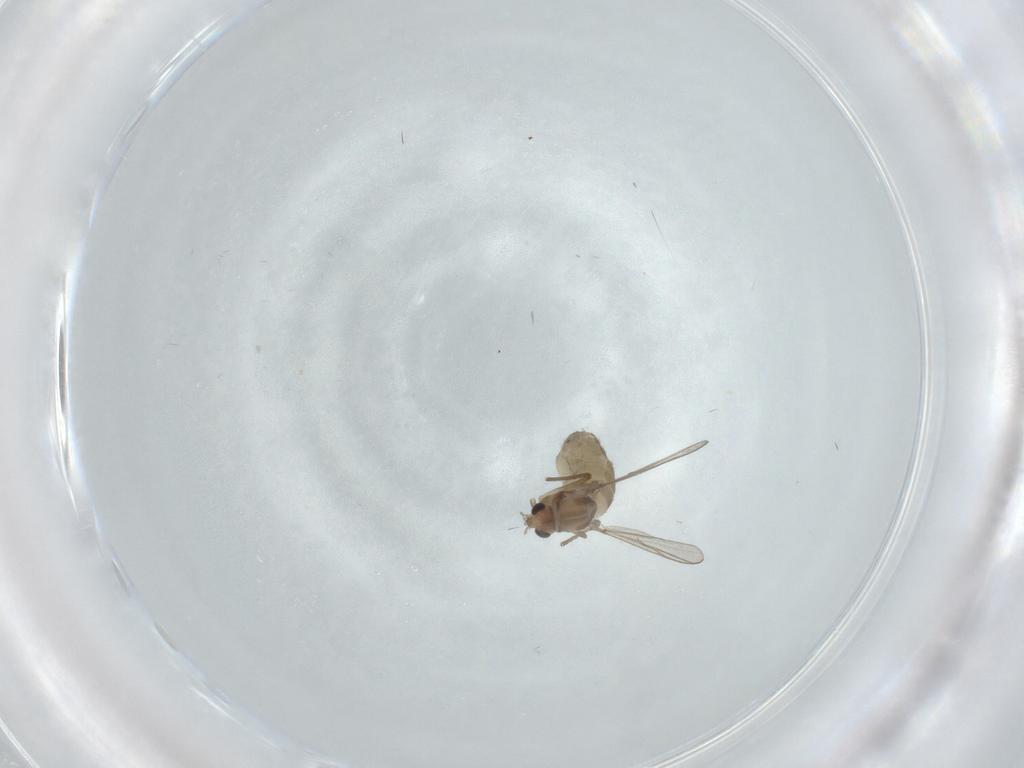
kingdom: Animalia
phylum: Arthropoda
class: Insecta
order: Diptera
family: Chironomidae
